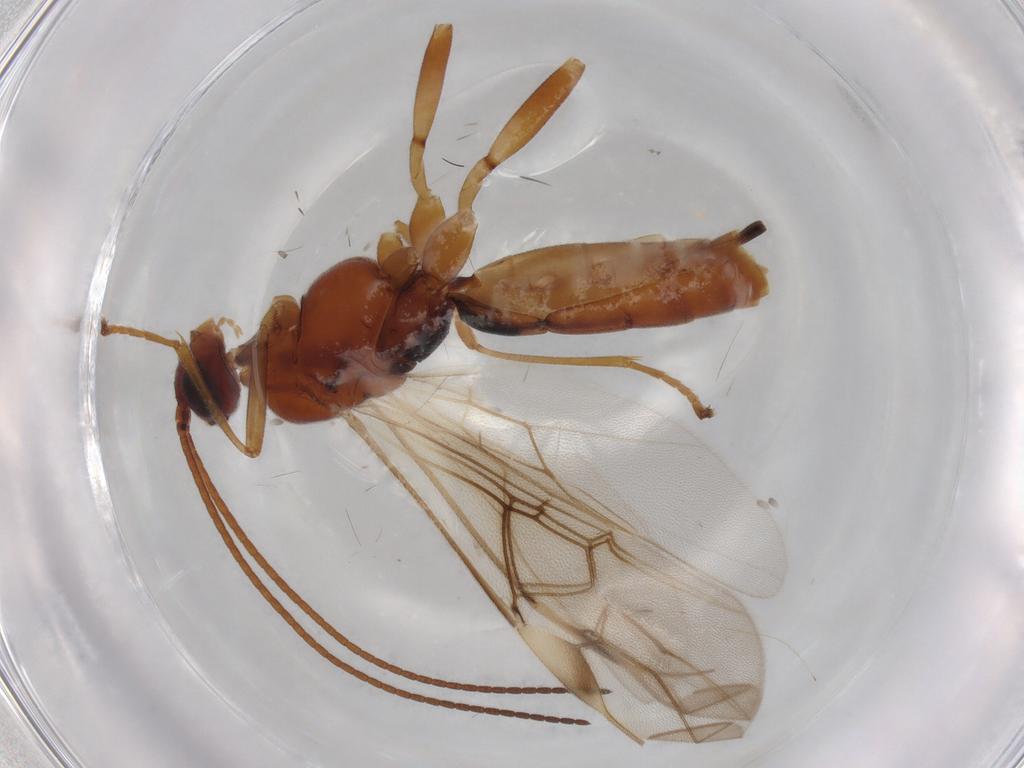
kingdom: Animalia
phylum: Arthropoda
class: Insecta
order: Hymenoptera
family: Braconidae
